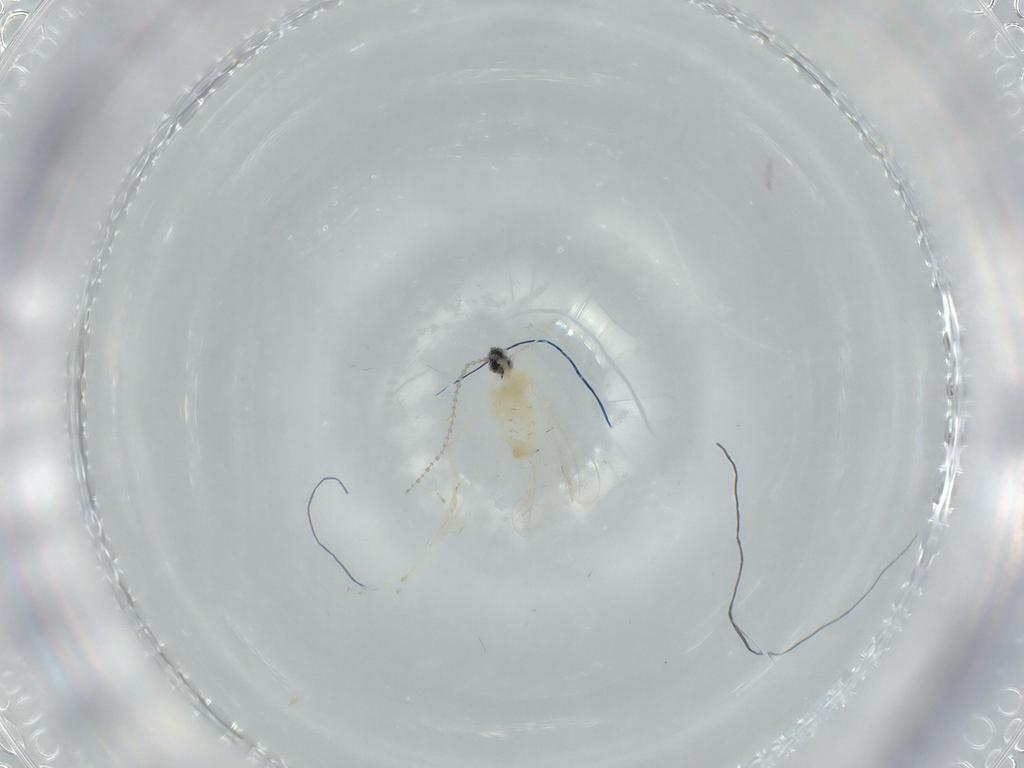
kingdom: Animalia
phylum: Arthropoda
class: Insecta
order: Diptera
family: Cecidomyiidae
